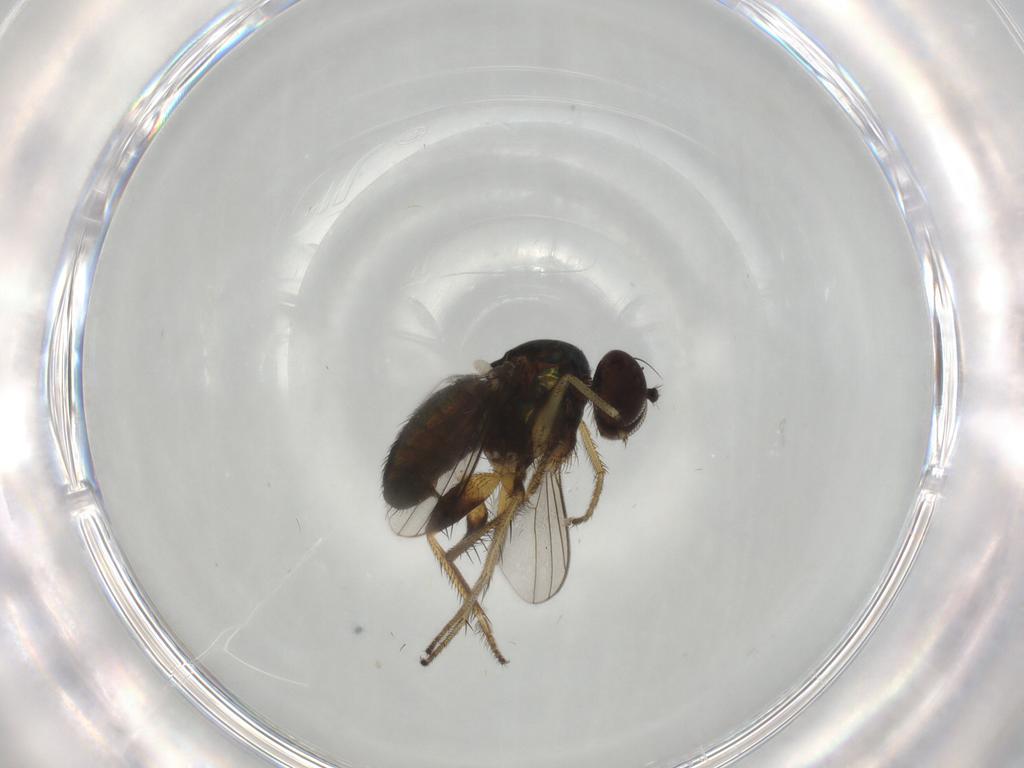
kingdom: Animalia
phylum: Arthropoda
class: Insecta
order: Diptera
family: Dolichopodidae
